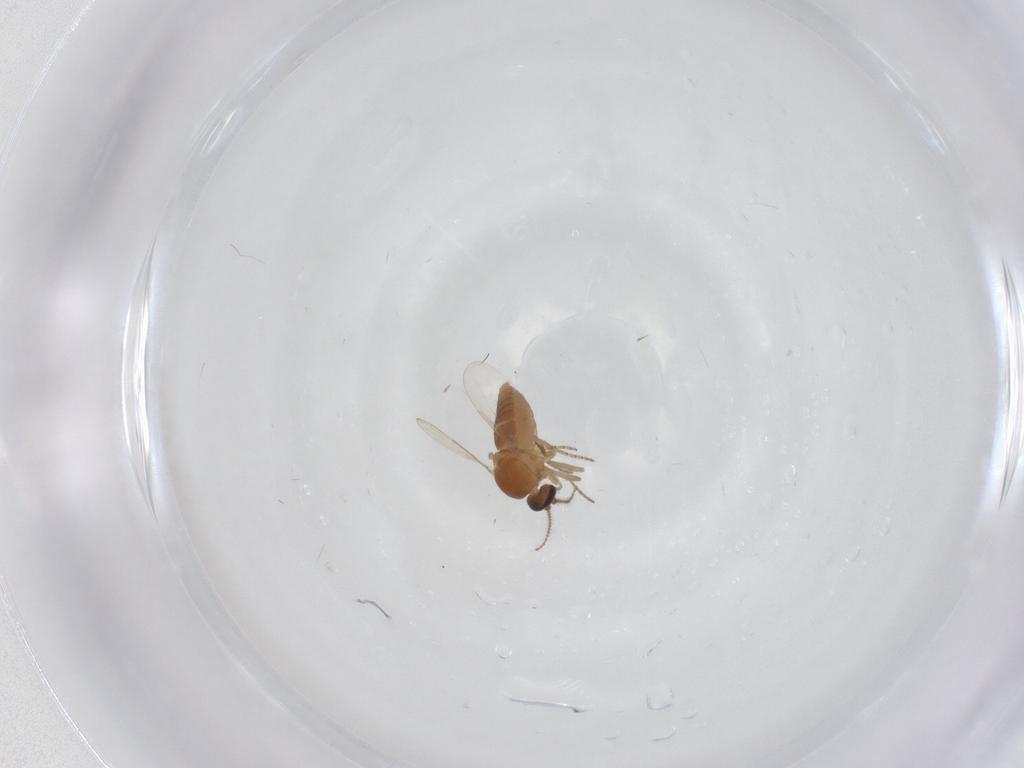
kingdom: Animalia
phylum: Arthropoda
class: Insecta
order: Diptera
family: Ceratopogonidae
